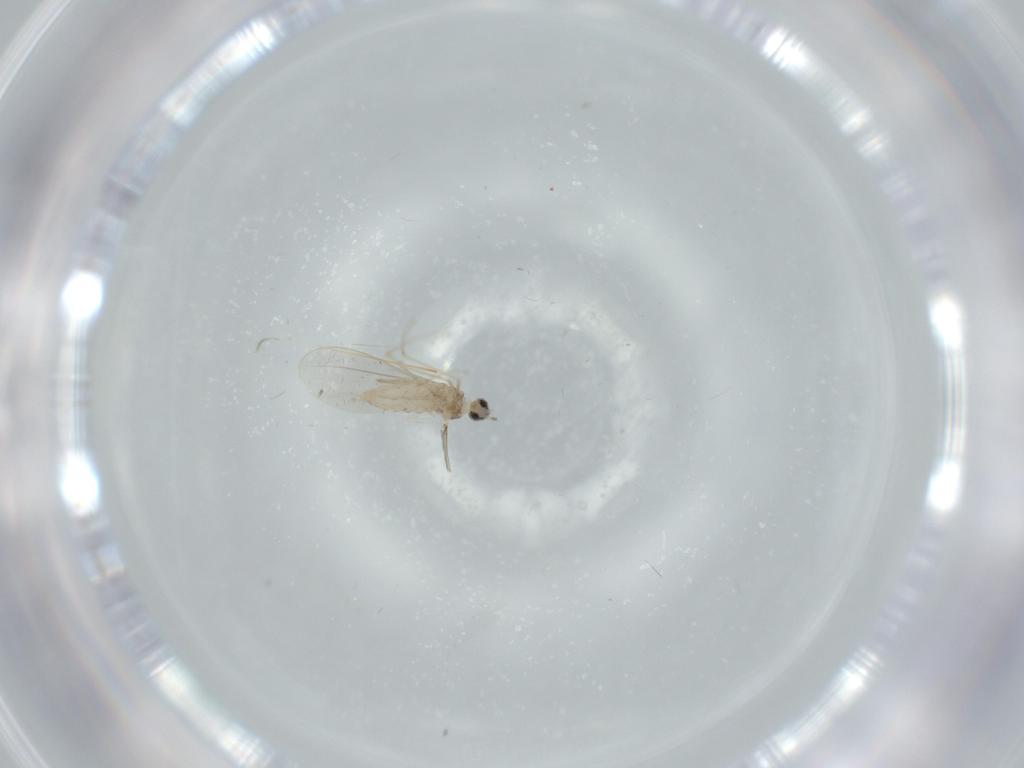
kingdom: Animalia
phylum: Arthropoda
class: Insecta
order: Diptera
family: Cecidomyiidae
